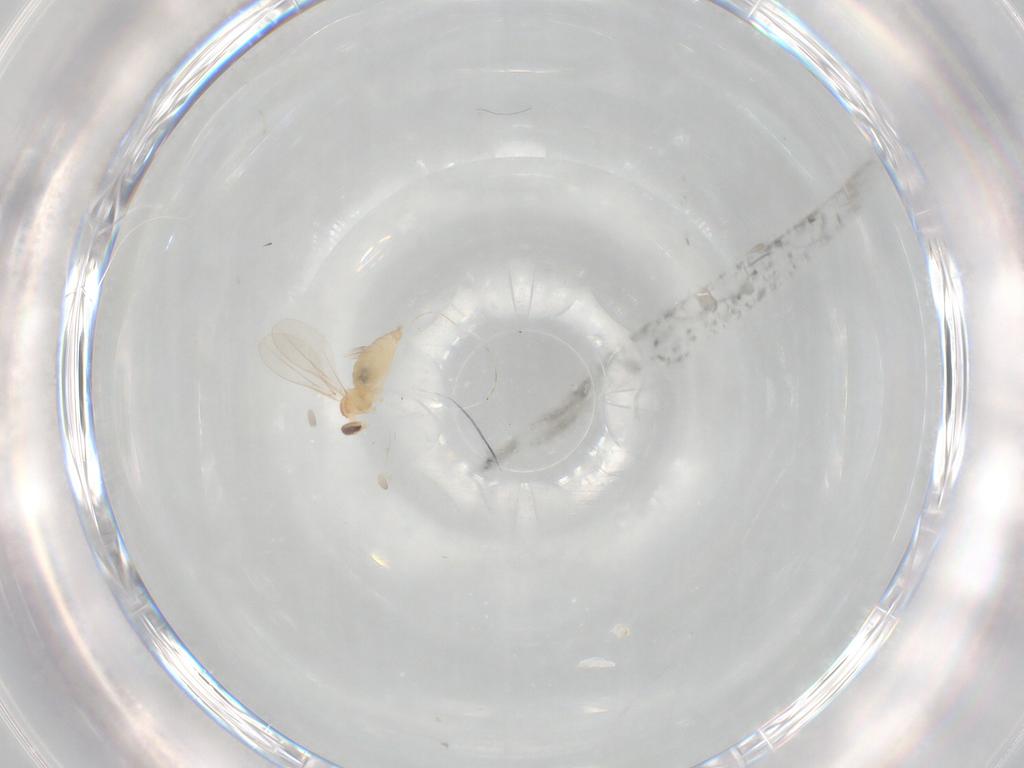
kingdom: Animalia
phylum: Arthropoda
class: Insecta
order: Diptera
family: Cecidomyiidae
